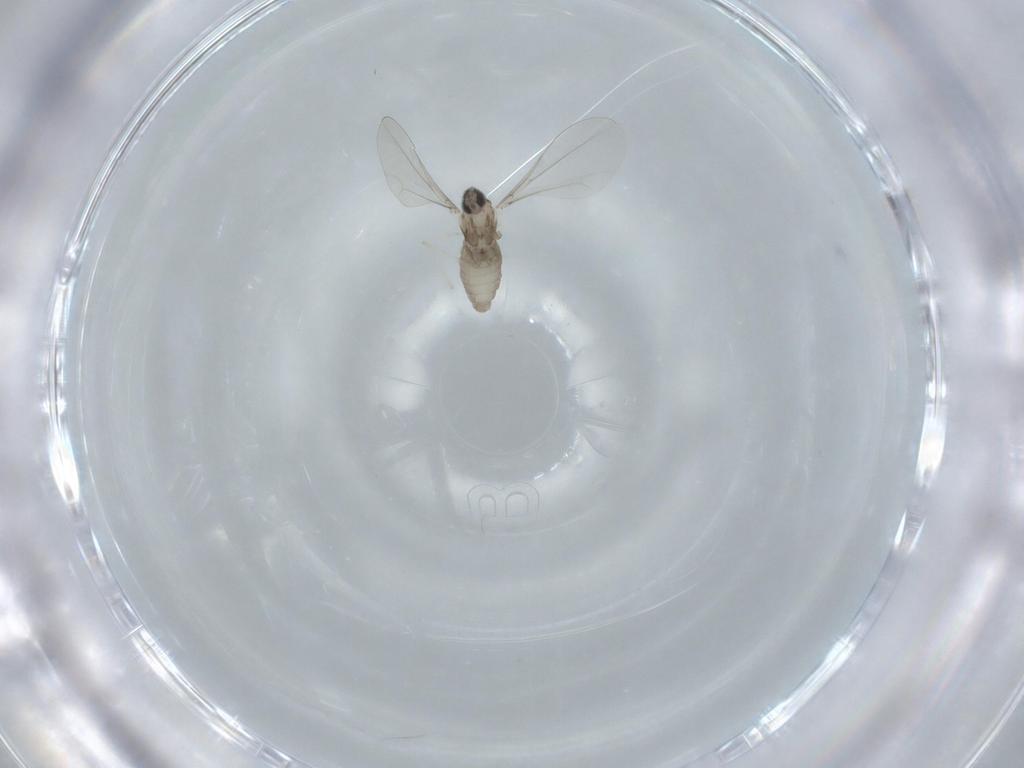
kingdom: Animalia
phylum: Arthropoda
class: Insecta
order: Diptera
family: Cecidomyiidae
